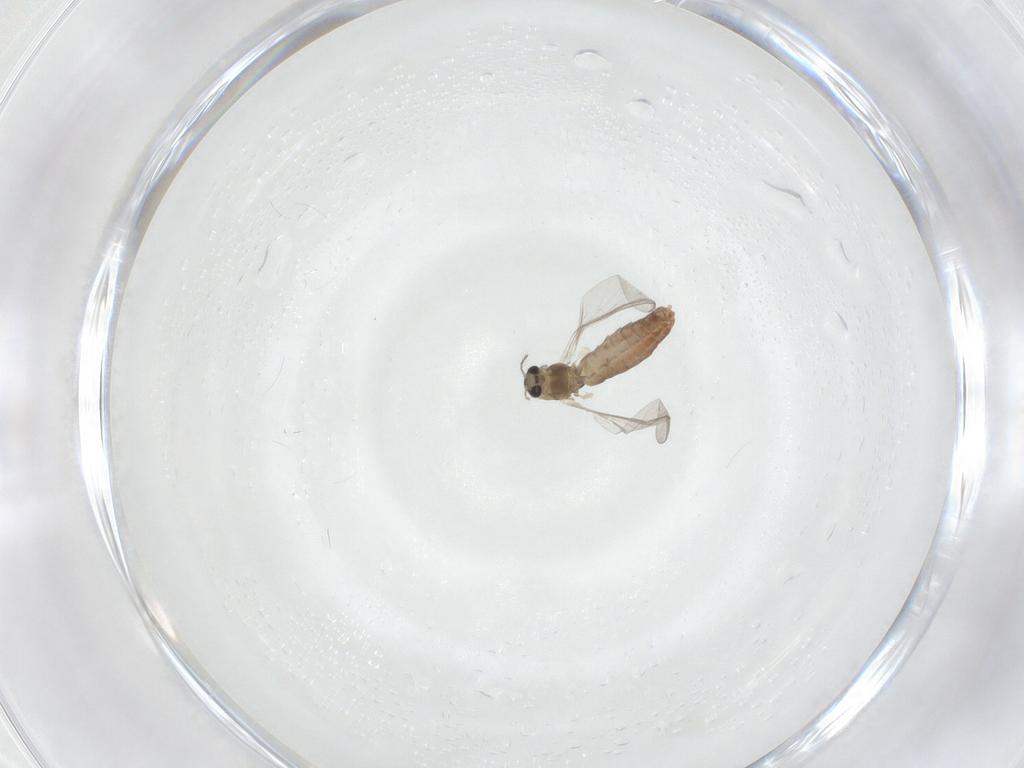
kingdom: Animalia
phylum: Arthropoda
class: Insecta
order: Diptera
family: Chironomidae
